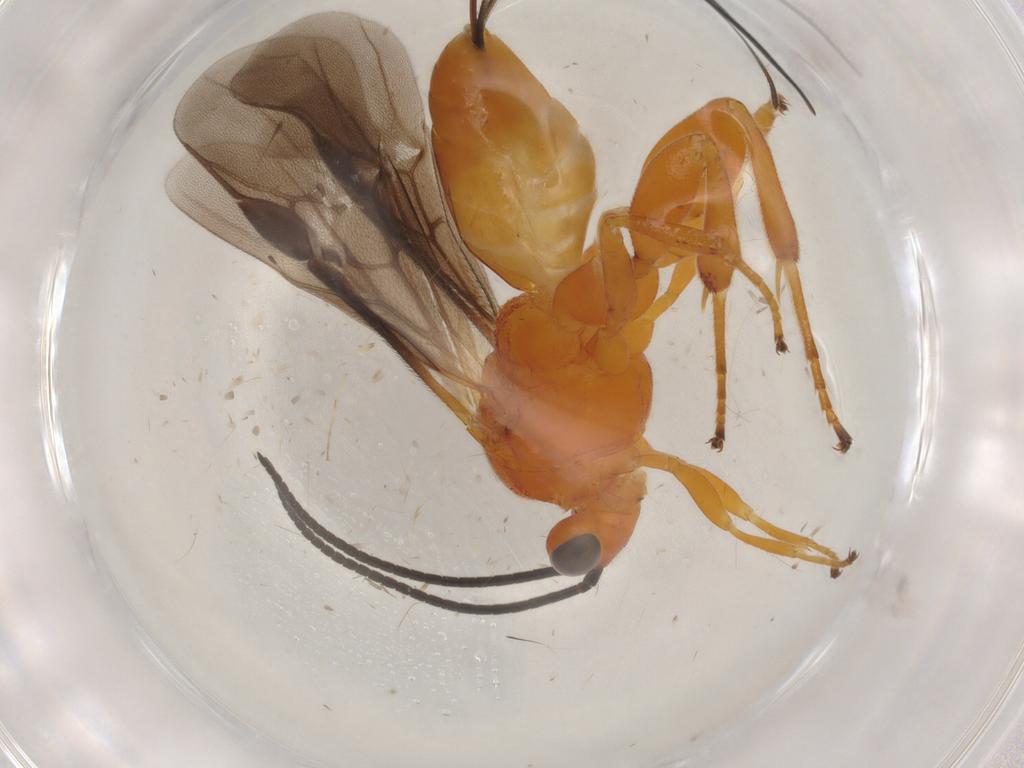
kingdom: Animalia
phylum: Arthropoda
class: Insecta
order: Hymenoptera
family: Braconidae
